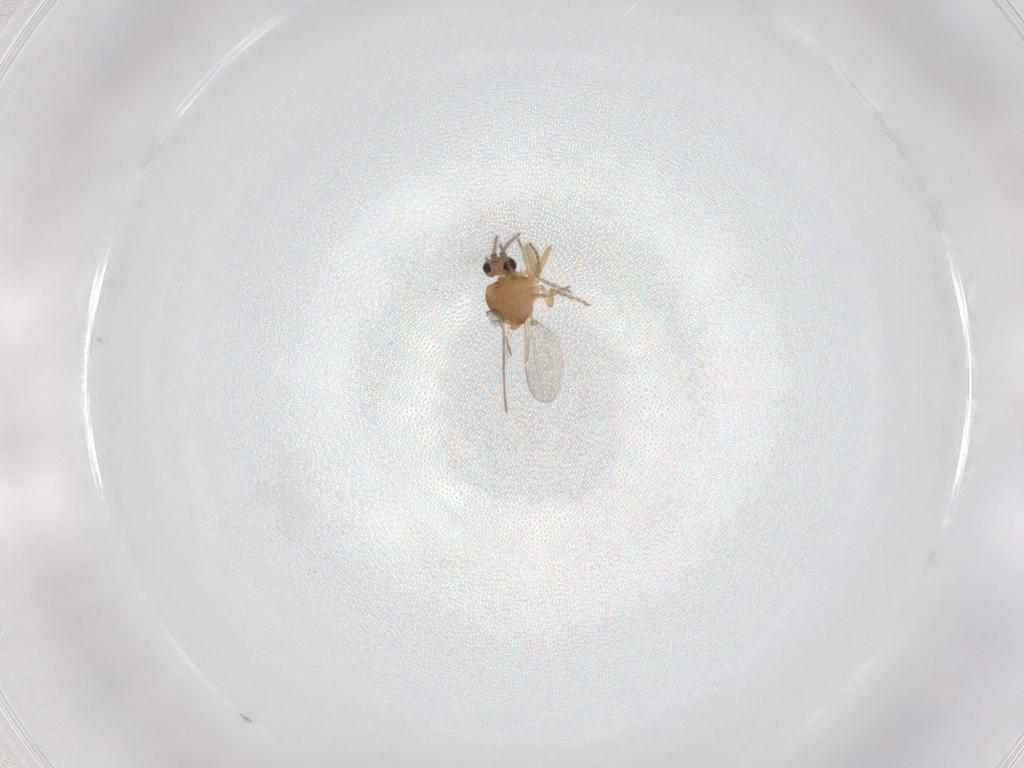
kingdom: Animalia
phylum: Arthropoda
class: Insecta
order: Diptera
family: Ceratopogonidae
